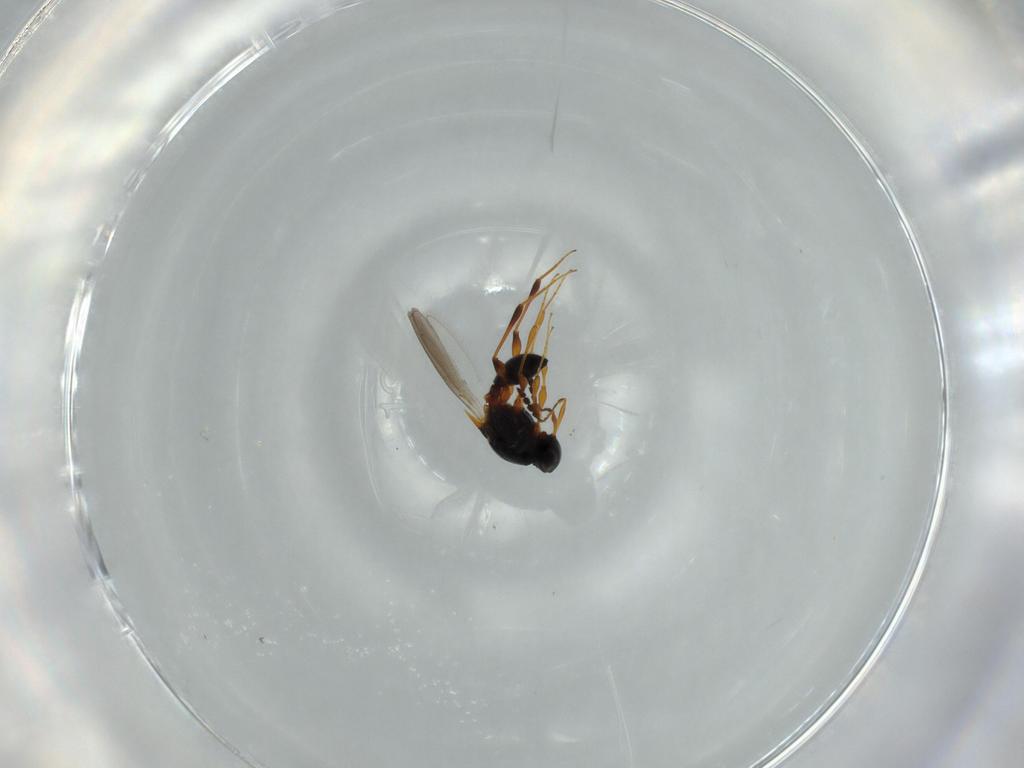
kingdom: Animalia
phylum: Arthropoda
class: Insecta
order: Hymenoptera
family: Platygastridae
